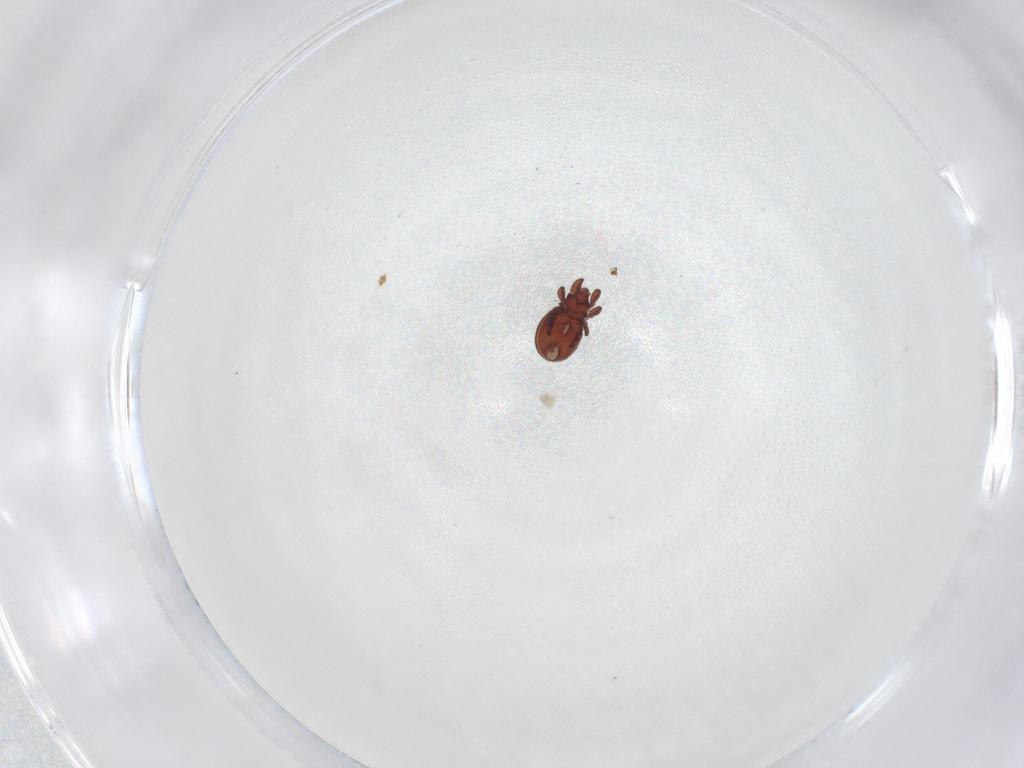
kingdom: Animalia
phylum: Arthropoda
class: Arachnida
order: Sarcoptiformes
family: Eremaeidae
